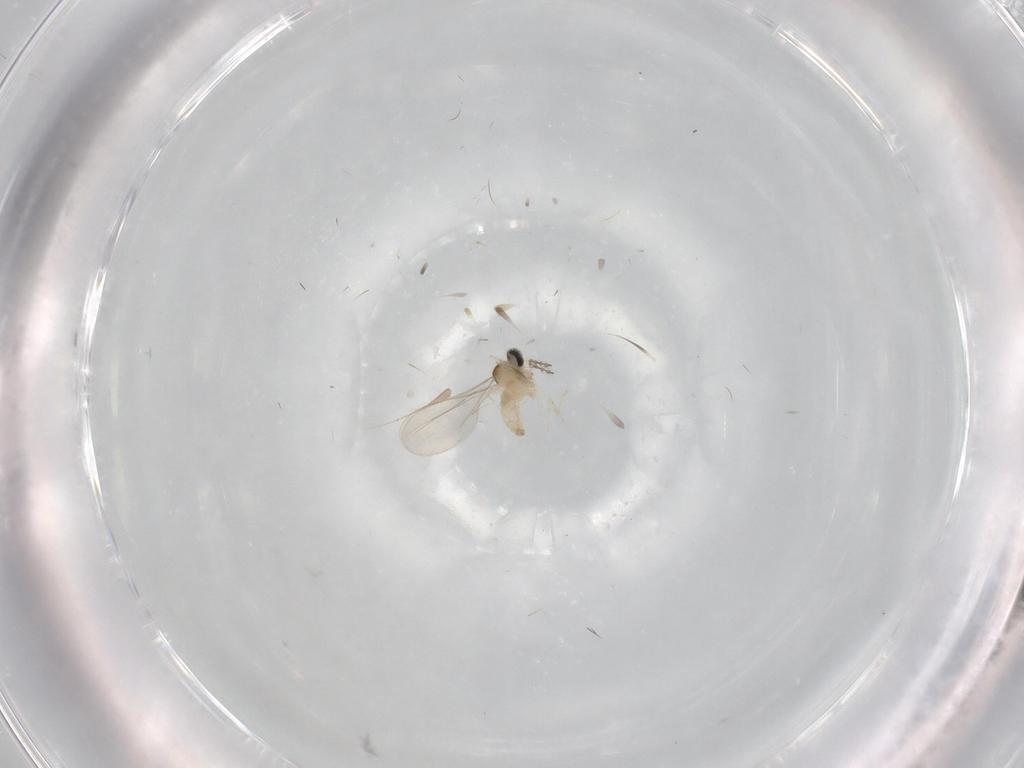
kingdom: Animalia
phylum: Arthropoda
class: Insecta
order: Diptera
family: Cecidomyiidae
